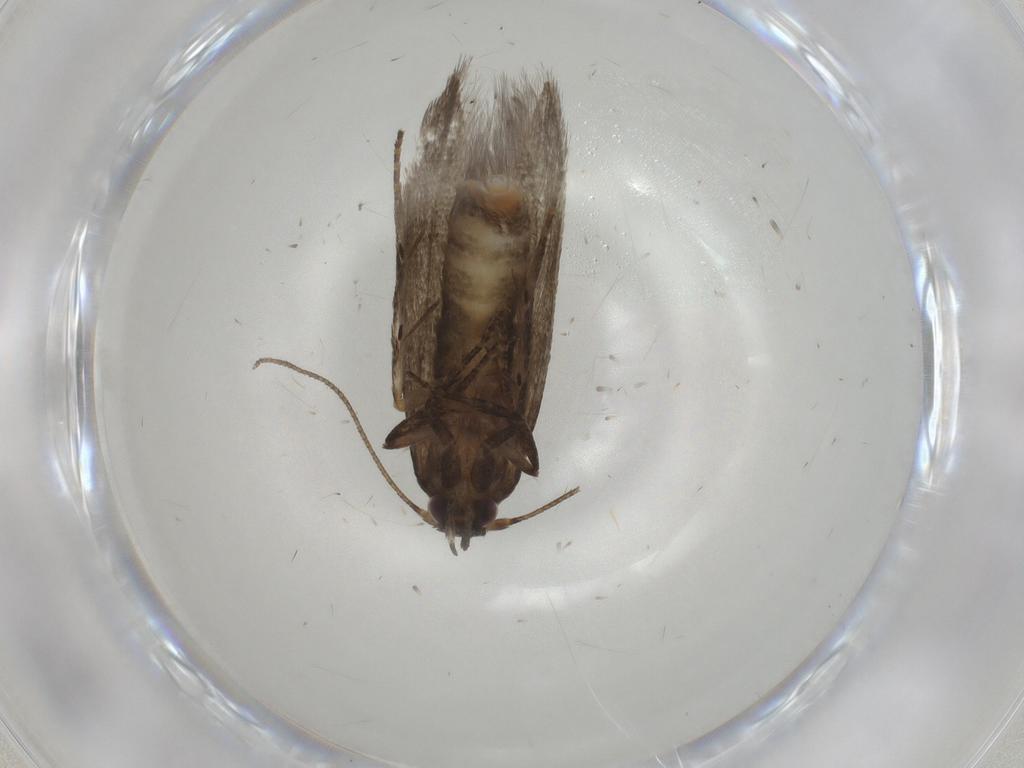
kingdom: Animalia
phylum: Arthropoda
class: Insecta
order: Lepidoptera
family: Blastobasidae
